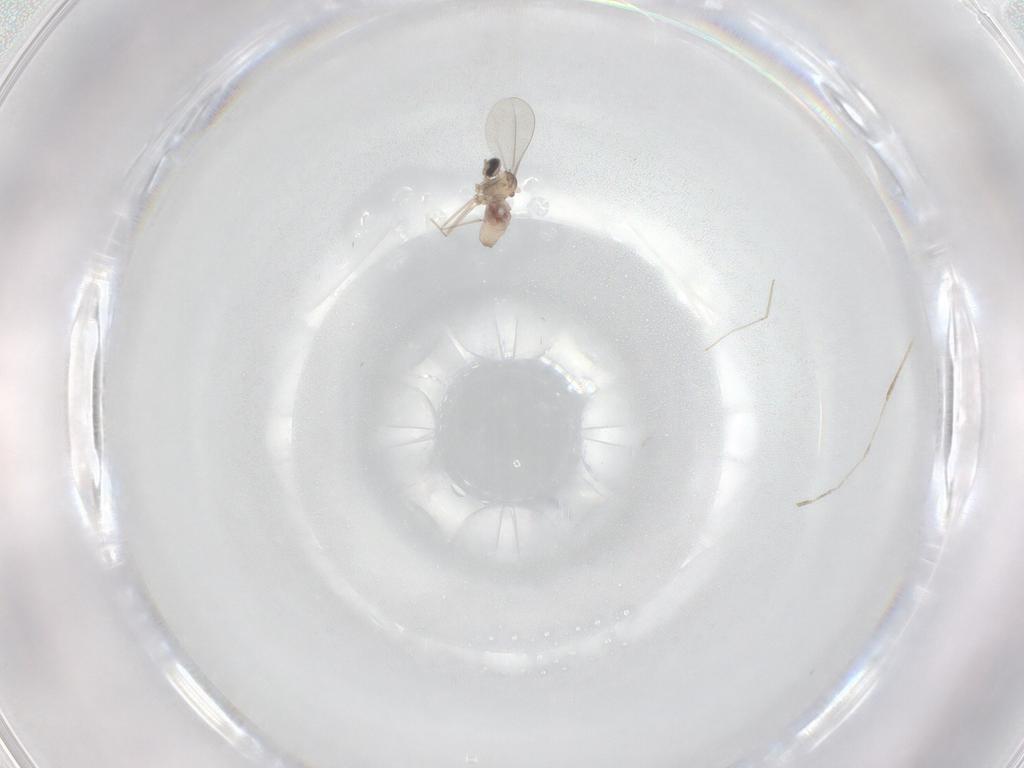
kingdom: Animalia
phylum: Arthropoda
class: Insecta
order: Diptera
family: Cecidomyiidae
